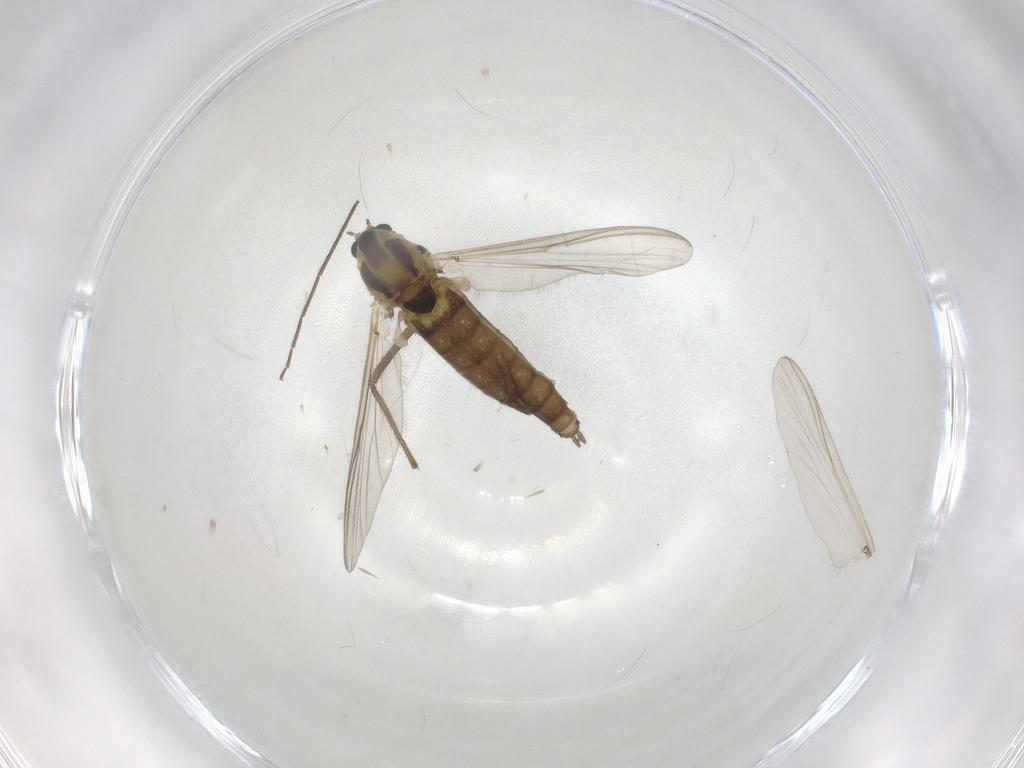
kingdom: Animalia
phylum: Arthropoda
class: Insecta
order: Diptera
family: Chironomidae
